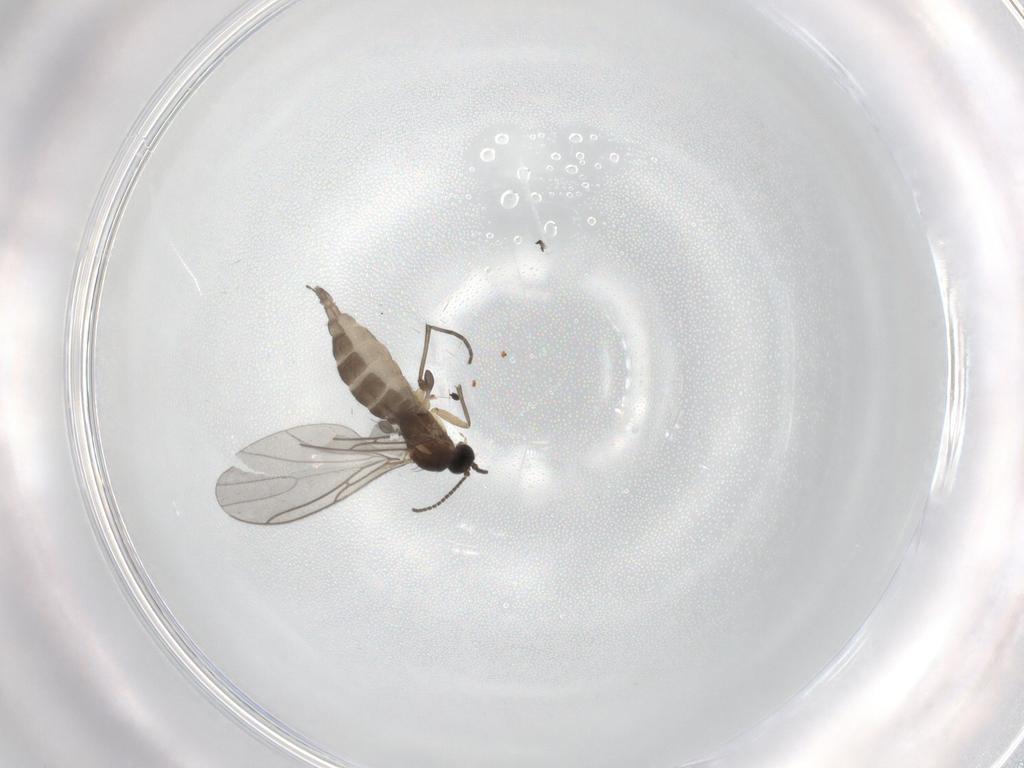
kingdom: Animalia
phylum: Arthropoda
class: Insecta
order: Diptera
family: Sciaridae
